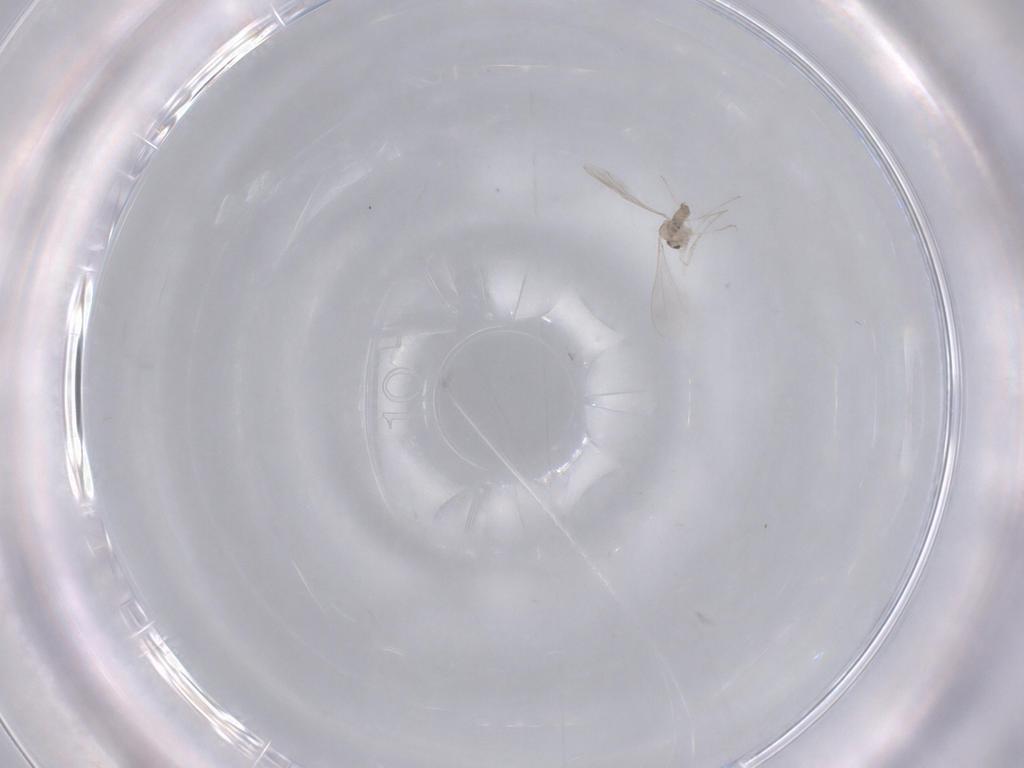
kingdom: Animalia
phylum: Arthropoda
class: Insecta
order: Diptera
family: Cecidomyiidae
